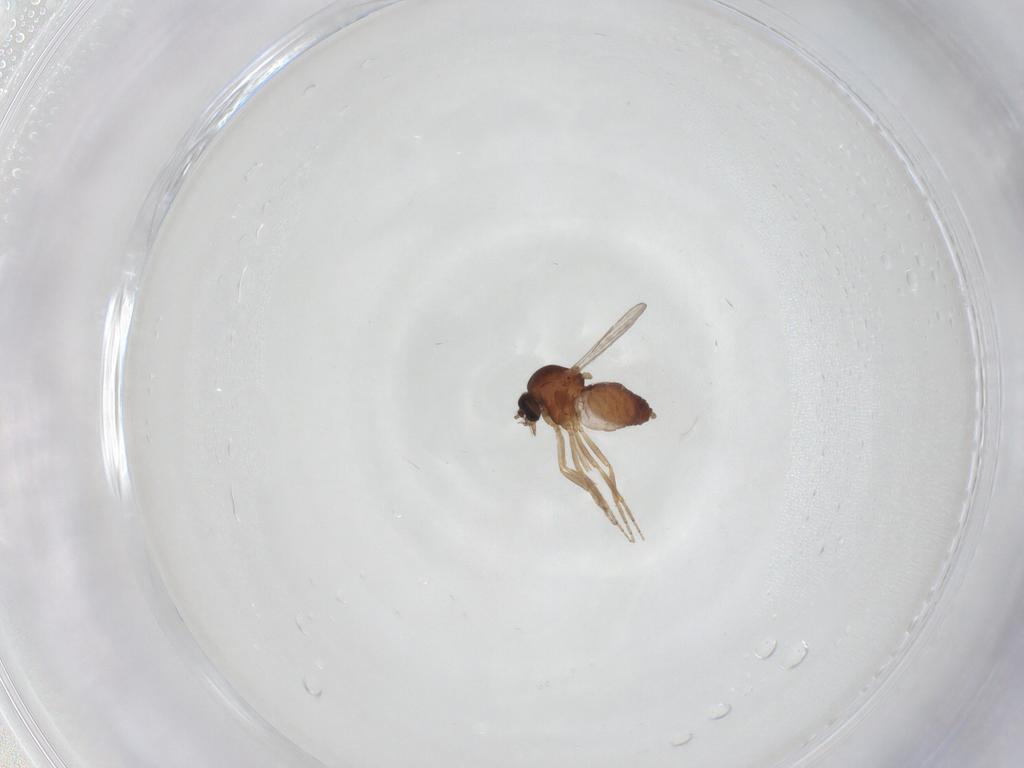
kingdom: Animalia
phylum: Arthropoda
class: Insecta
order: Diptera
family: Ceratopogonidae
